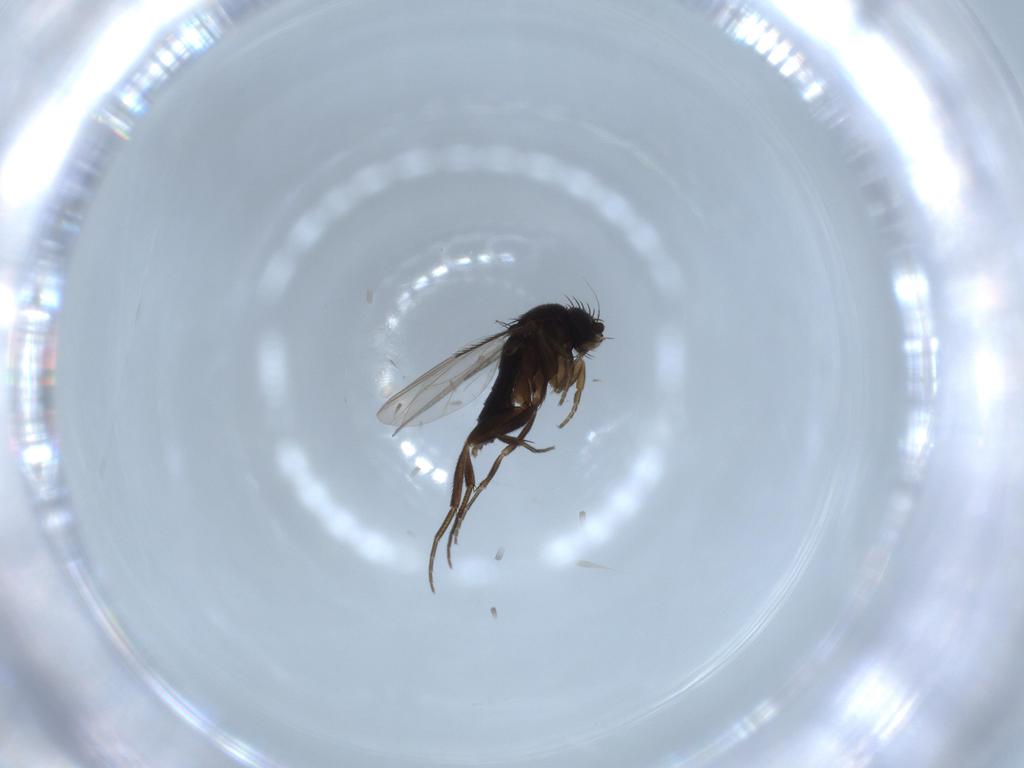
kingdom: Animalia
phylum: Arthropoda
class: Insecta
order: Diptera
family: Phoridae
